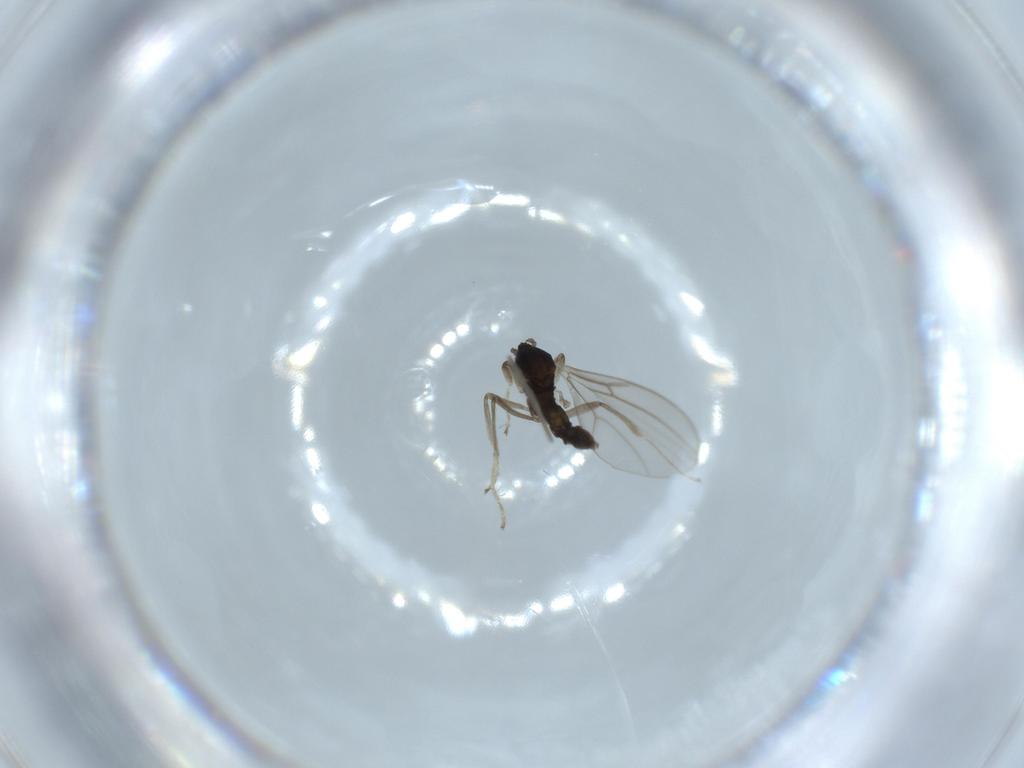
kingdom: Animalia
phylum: Arthropoda
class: Insecta
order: Diptera
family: Cecidomyiidae
